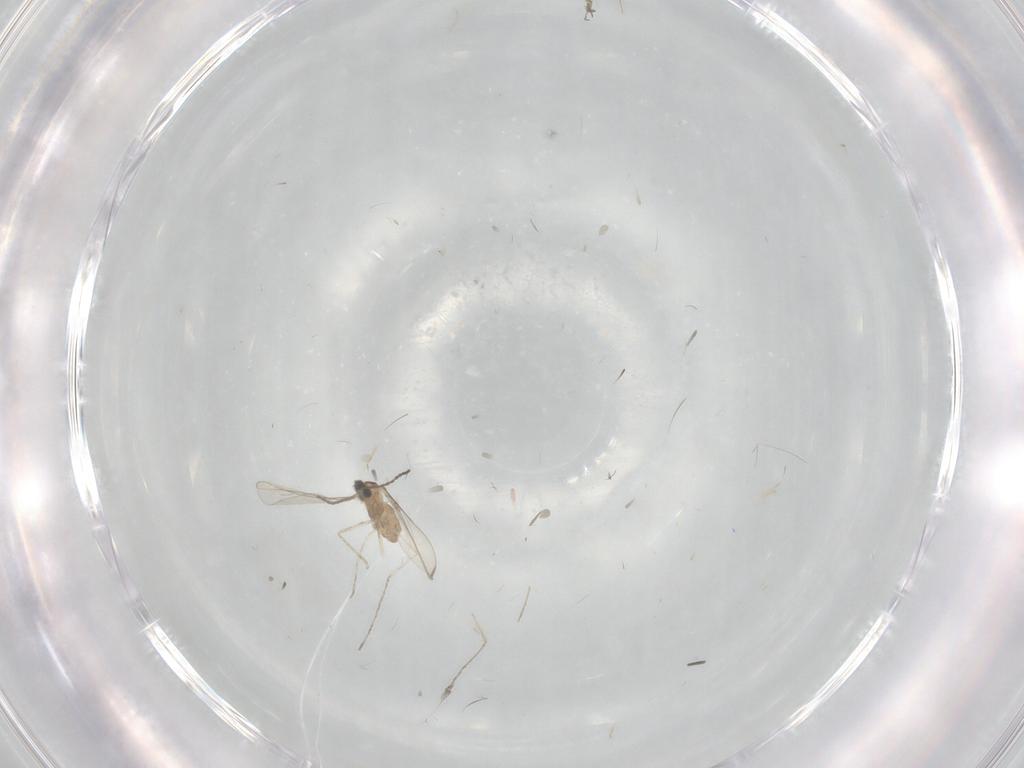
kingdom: Animalia
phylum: Arthropoda
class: Insecta
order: Diptera
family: Cecidomyiidae
